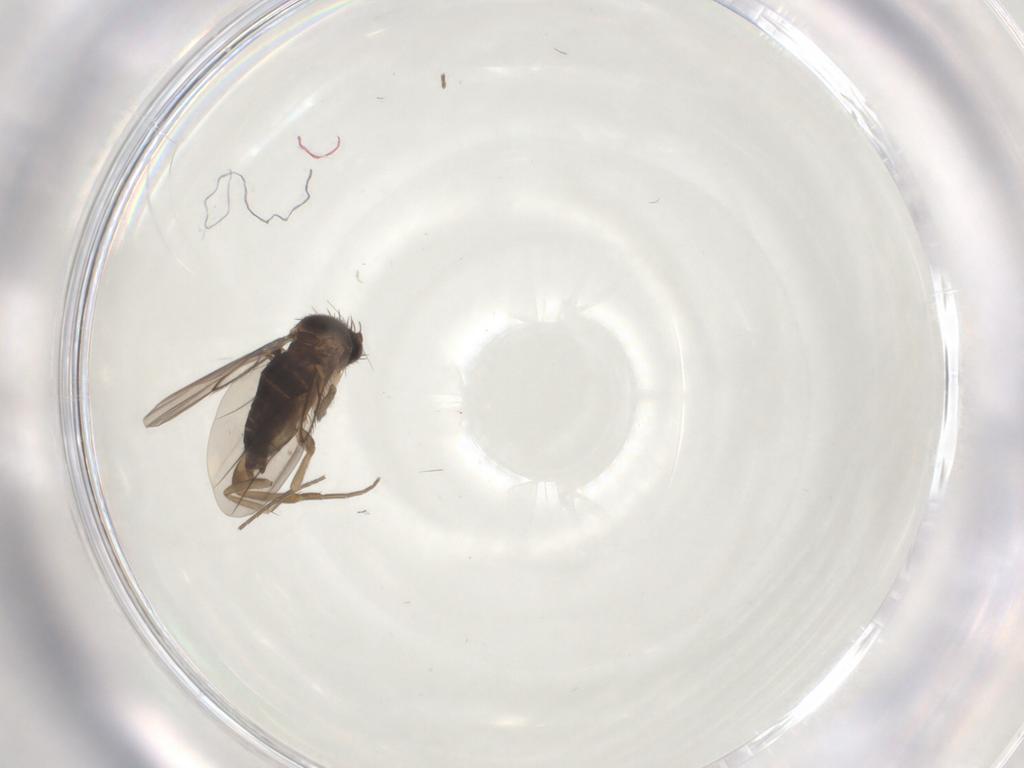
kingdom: Animalia
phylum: Arthropoda
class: Insecta
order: Diptera
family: Phoridae
